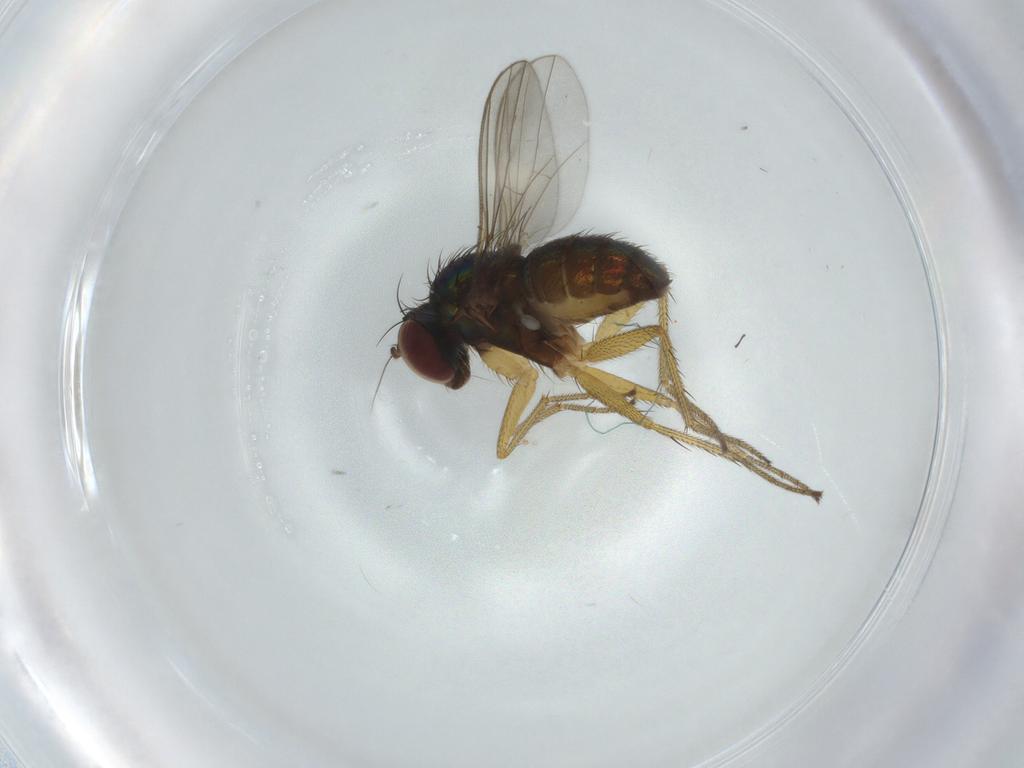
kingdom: Animalia
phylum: Arthropoda
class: Insecta
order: Diptera
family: Dolichopodidae
